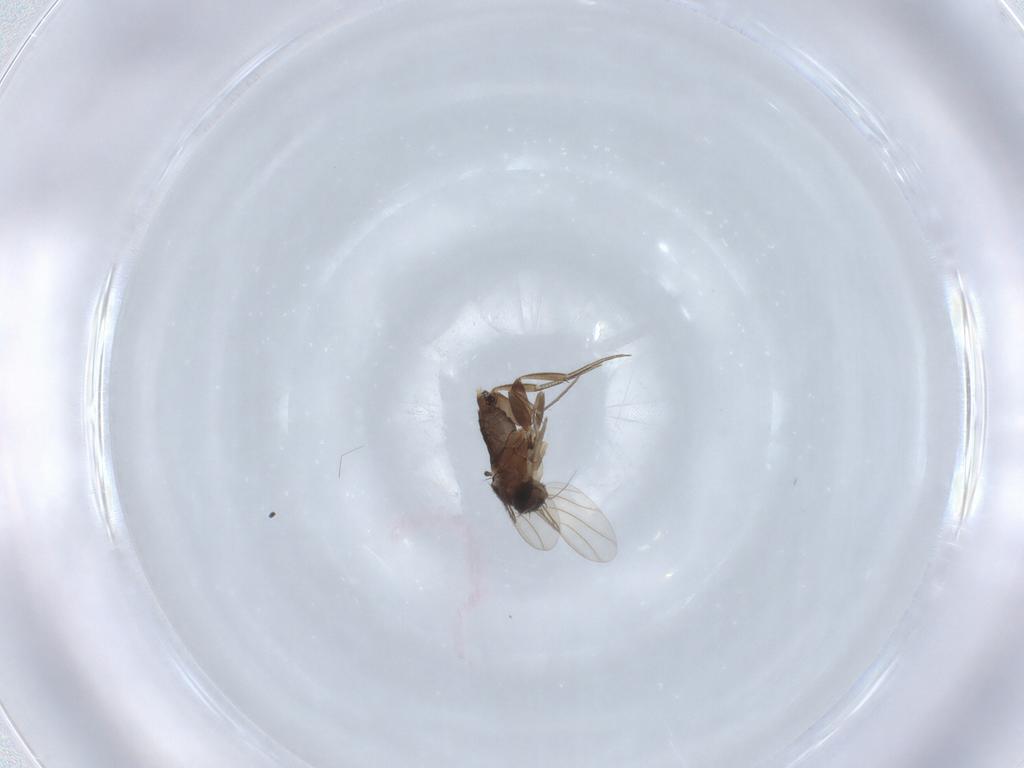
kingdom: Animalia
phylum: Arthropoda
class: Insecta
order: Diptera
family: Phoridae
